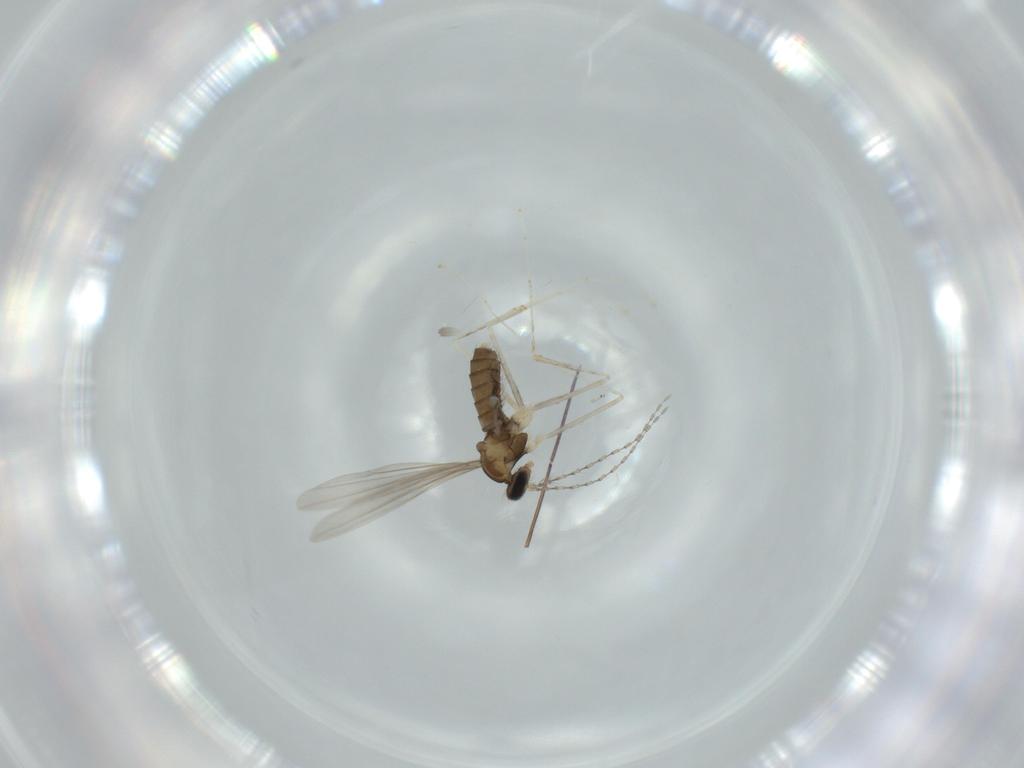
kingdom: Animalia
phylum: Arthropoda
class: Insecta
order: Diptera
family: Cecidomyiidae
